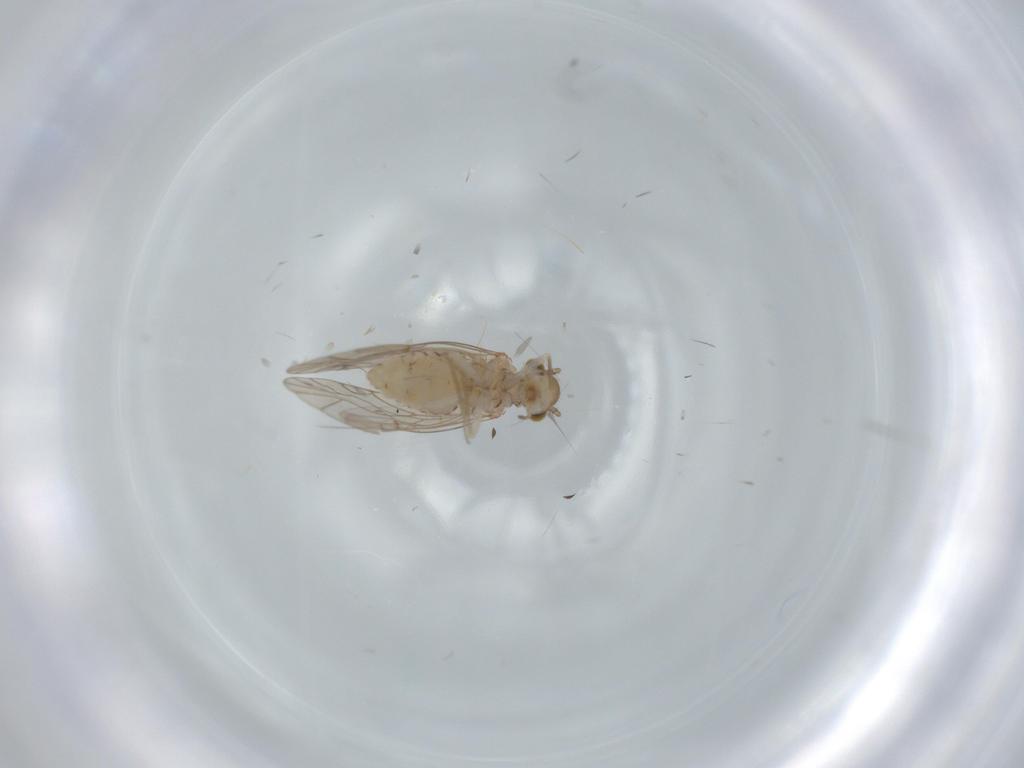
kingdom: Animalia
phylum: Arthropoda
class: Insecta
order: Psocodea
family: Lachesillidae
